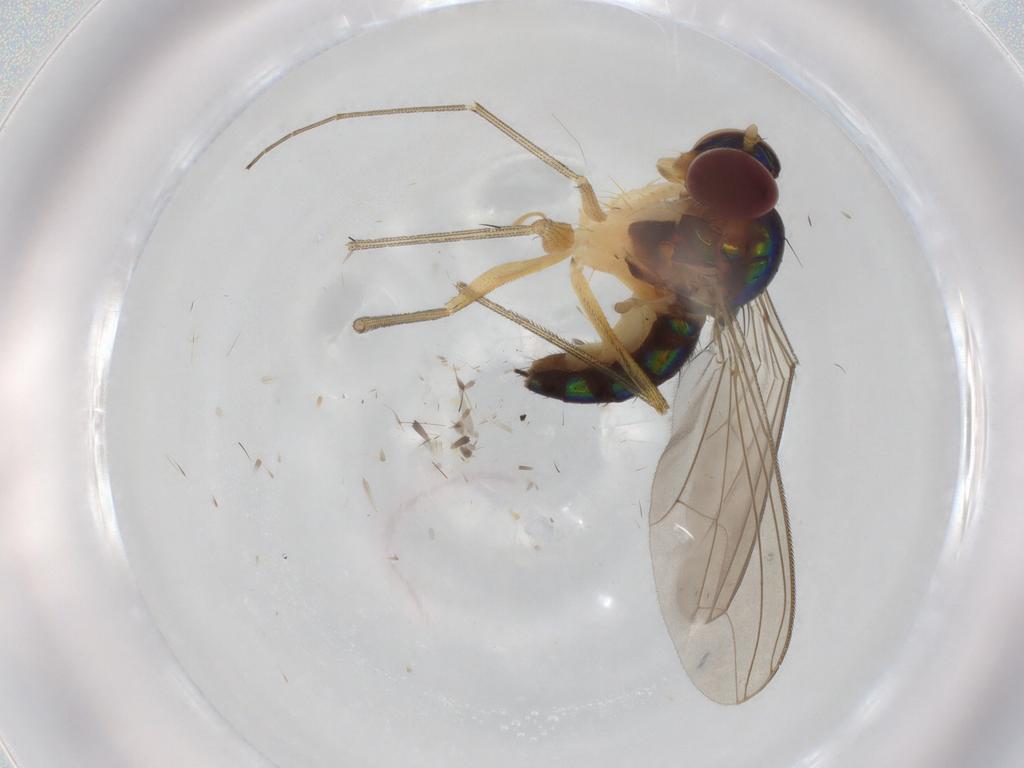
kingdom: Animalia
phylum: Arthropoda
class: Insecta
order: Diptera
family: Dolichopodidae
